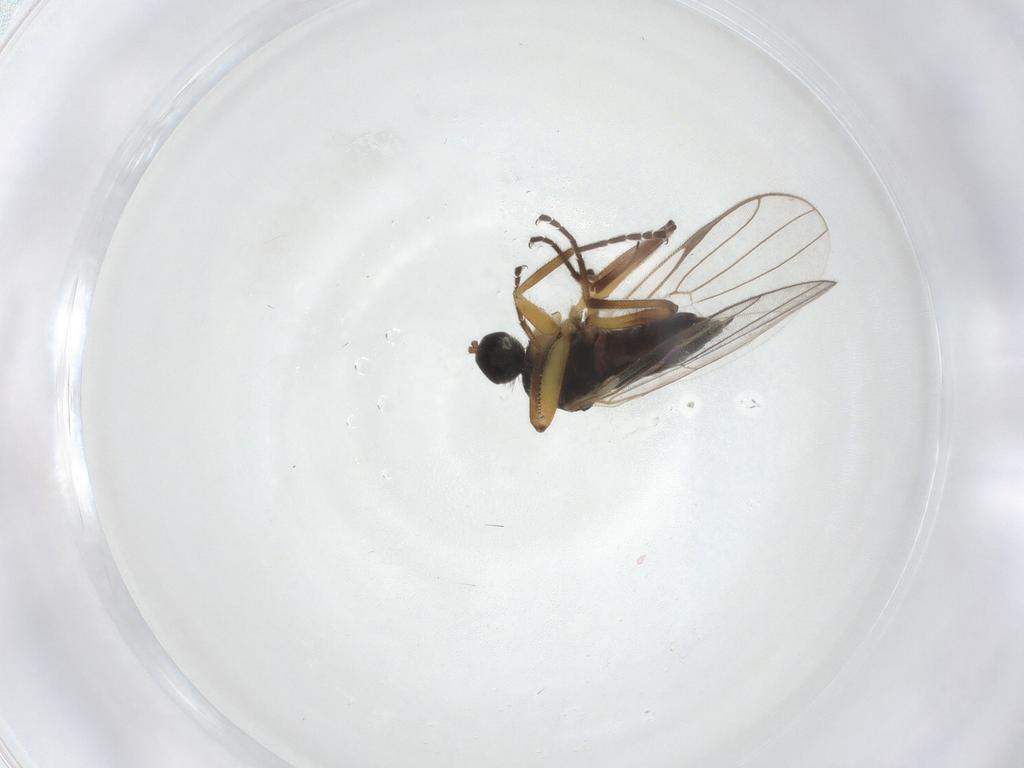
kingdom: Animalia
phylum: Arthropoda
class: Insecta
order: Diptera
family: Hybotidae
